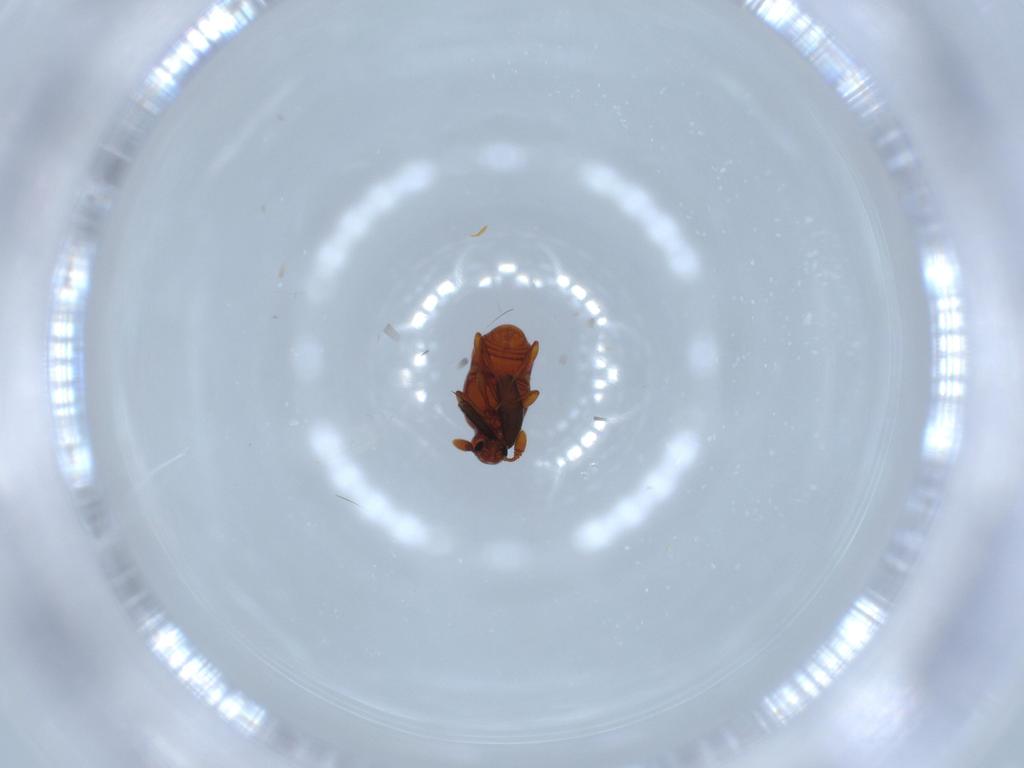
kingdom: Animalia
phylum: Arthropoda
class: Insecta
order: Coleoptera
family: Staphylinidae
